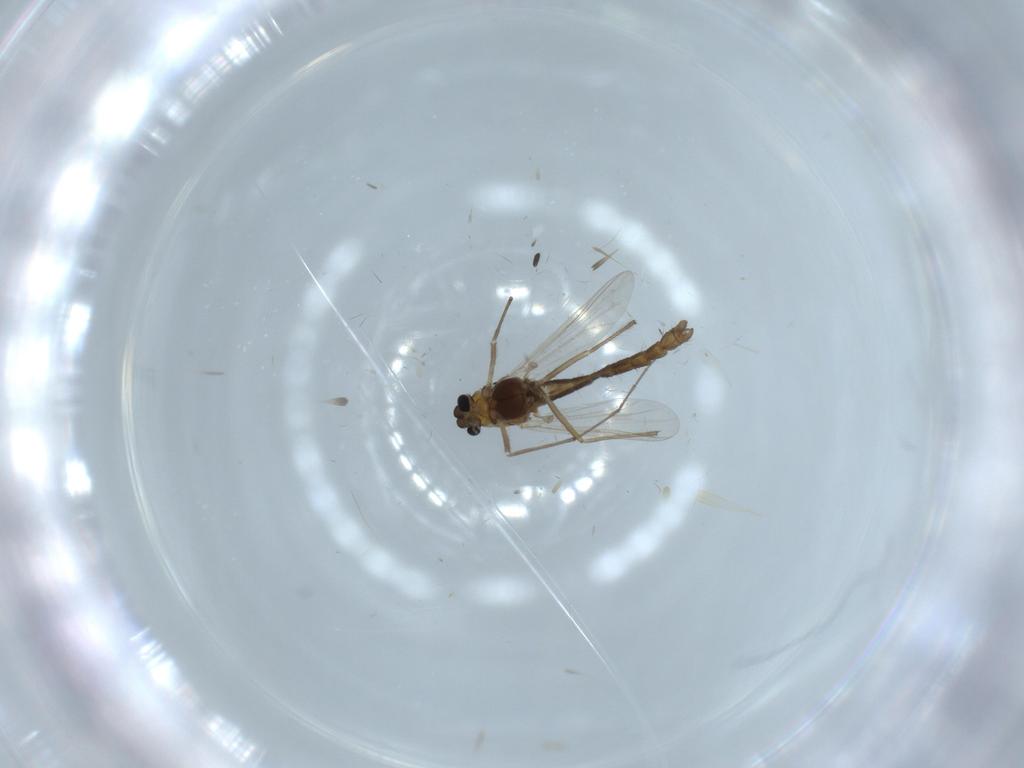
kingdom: Animalia
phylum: Arthropoda
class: Insecta
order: Diptera
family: Chironomidae
